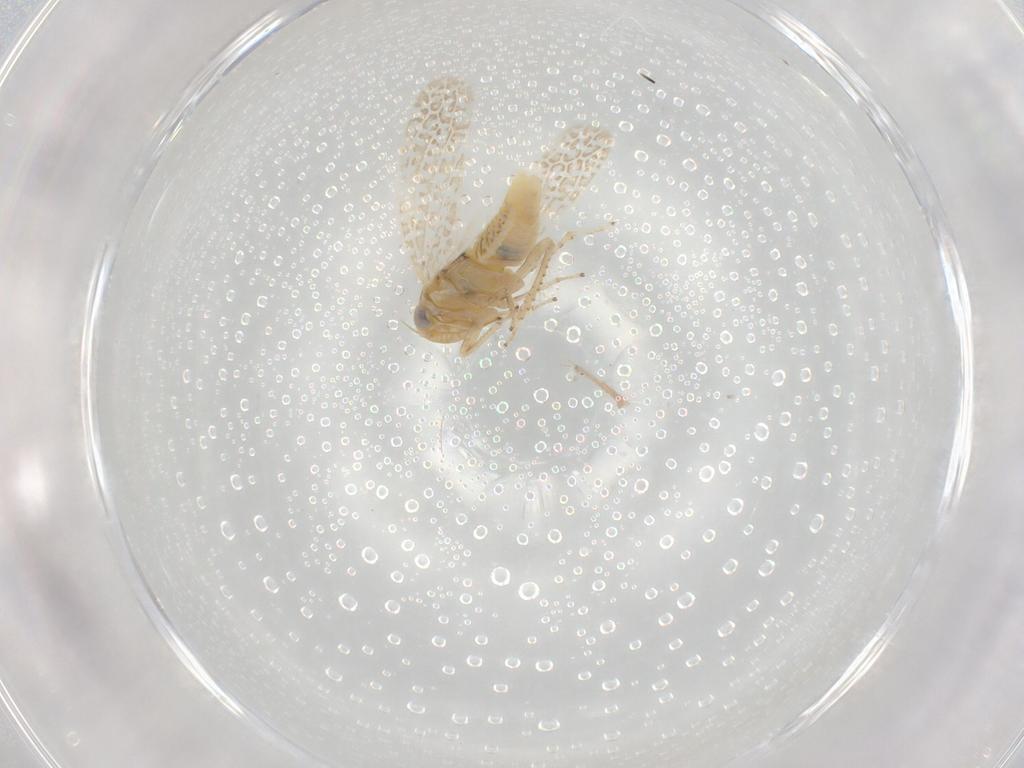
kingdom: Animalia
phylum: Arthropoda
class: Insecta
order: Hemiptera
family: Cicadellidae
